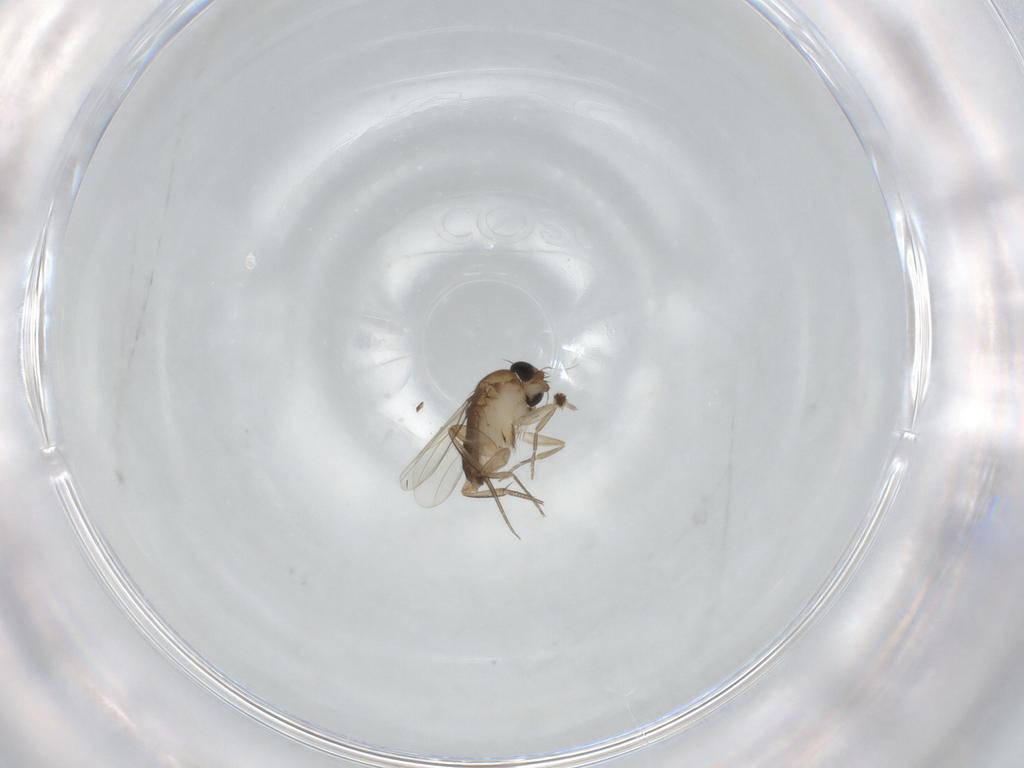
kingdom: Animalia
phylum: Arthropoda
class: Insecta
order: Diptera
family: Phoridae
